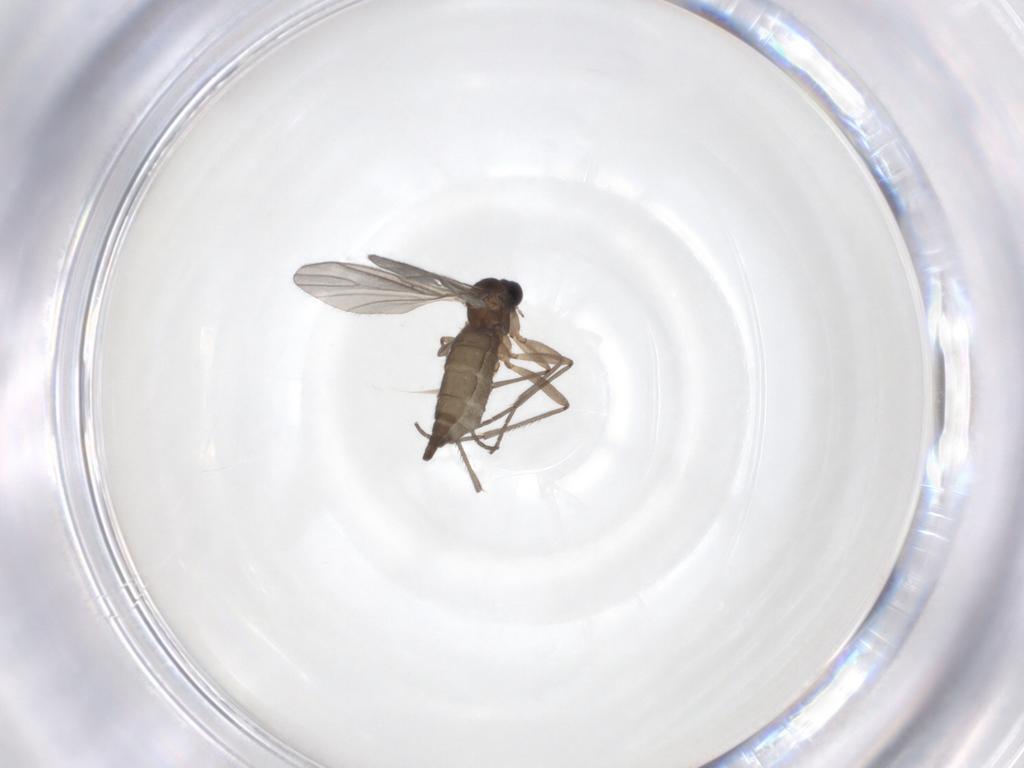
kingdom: Animalia
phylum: Arthropoda
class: Insecta
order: Diptera
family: Sciaridae
